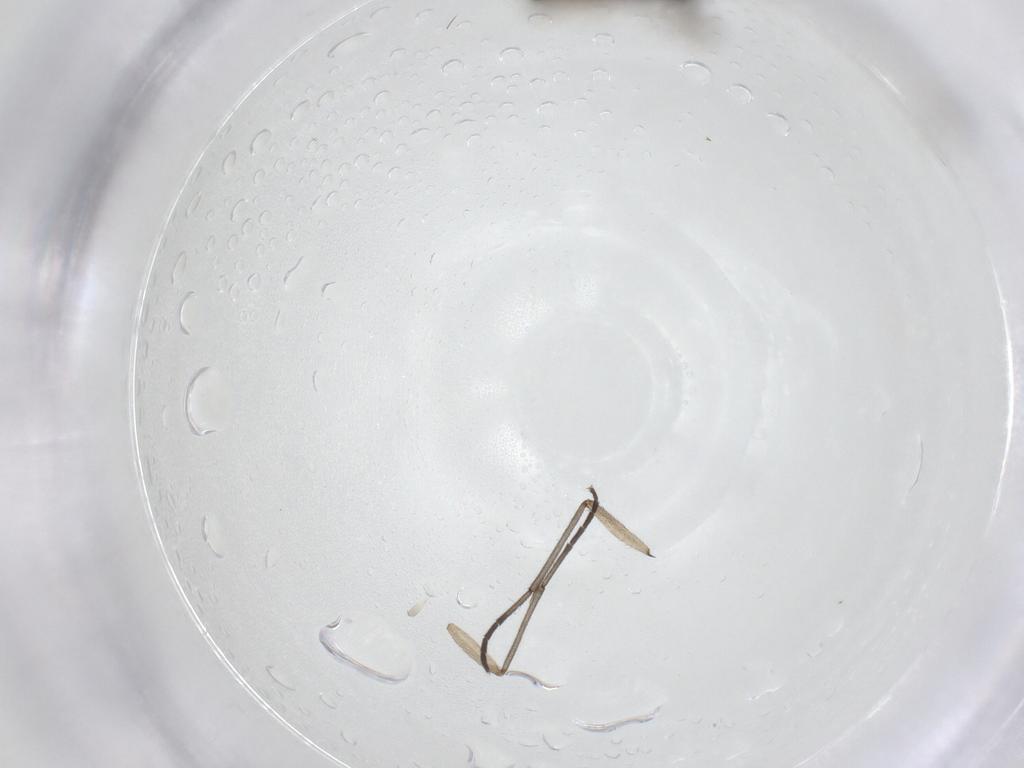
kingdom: Animalia
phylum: Arthropoda
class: Insecta
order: Diptera
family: Sciaridae
